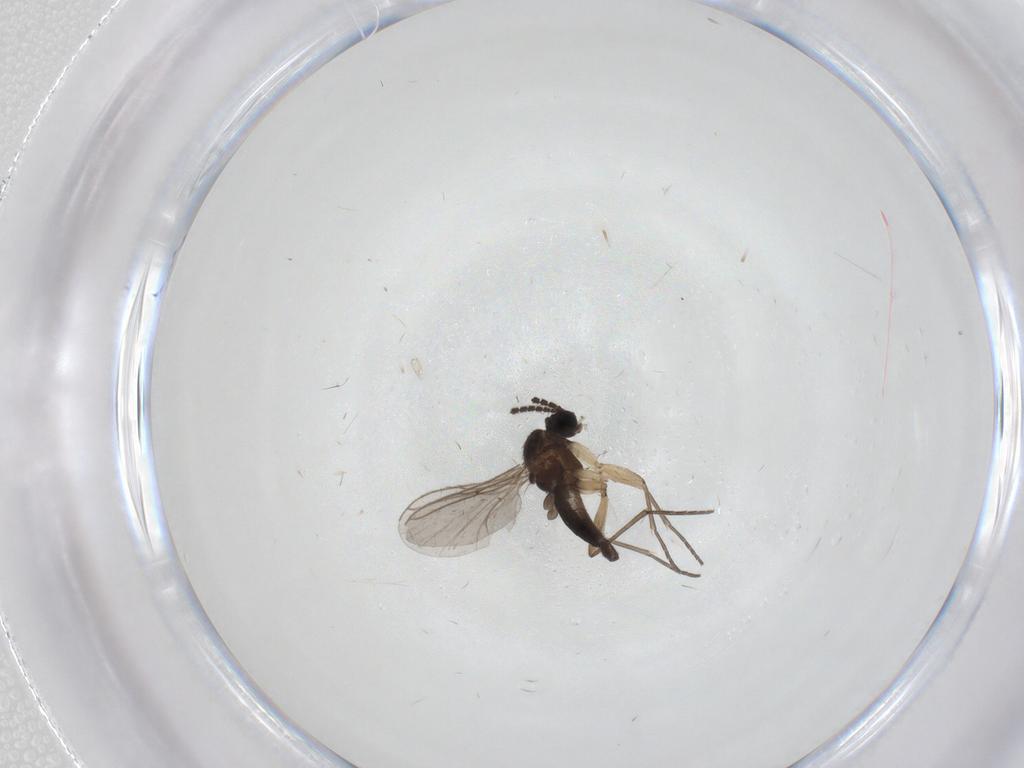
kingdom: Animalia
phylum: Arthropoda
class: Insecta
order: Diptera
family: Sciaridae
